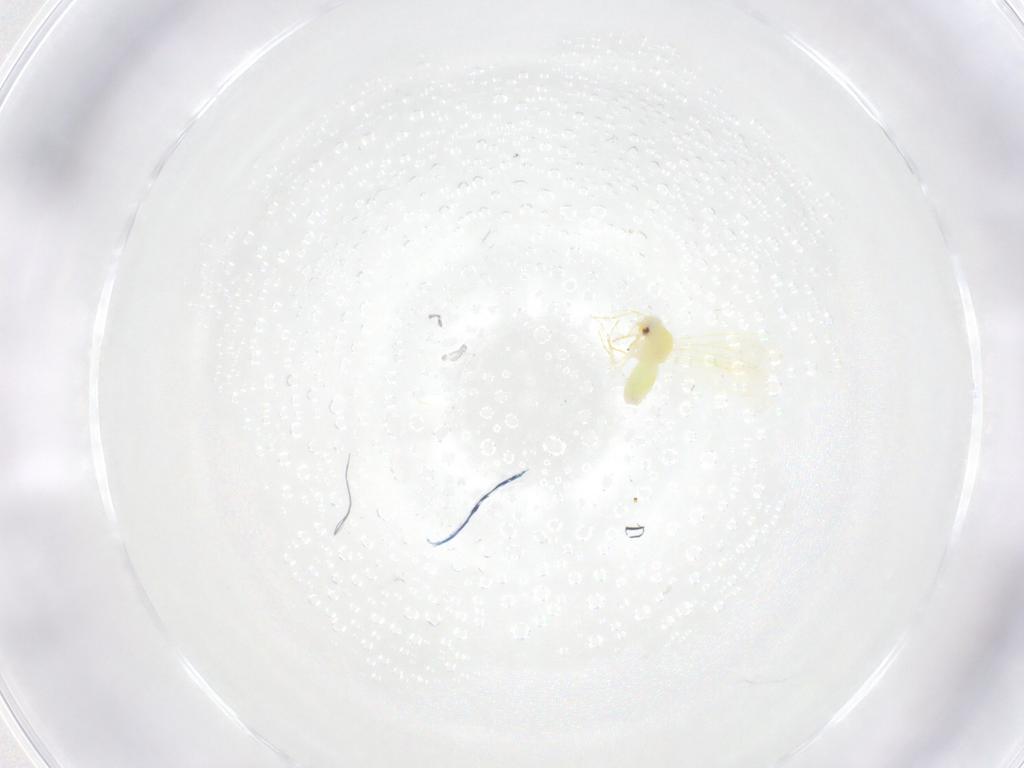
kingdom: Animalia
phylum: Arthropoda
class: Insecta
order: Hemiptera
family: Aleyrodidae
